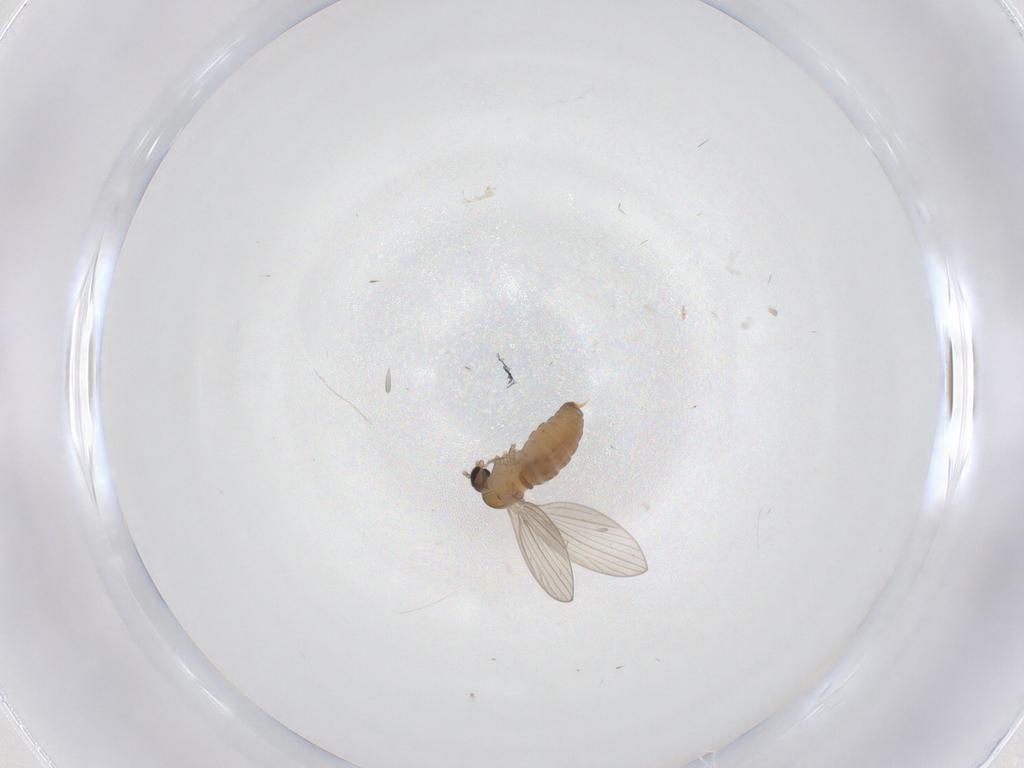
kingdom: Animalia
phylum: Arthropoda
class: Insecta
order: Diptera
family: Psychodidae
